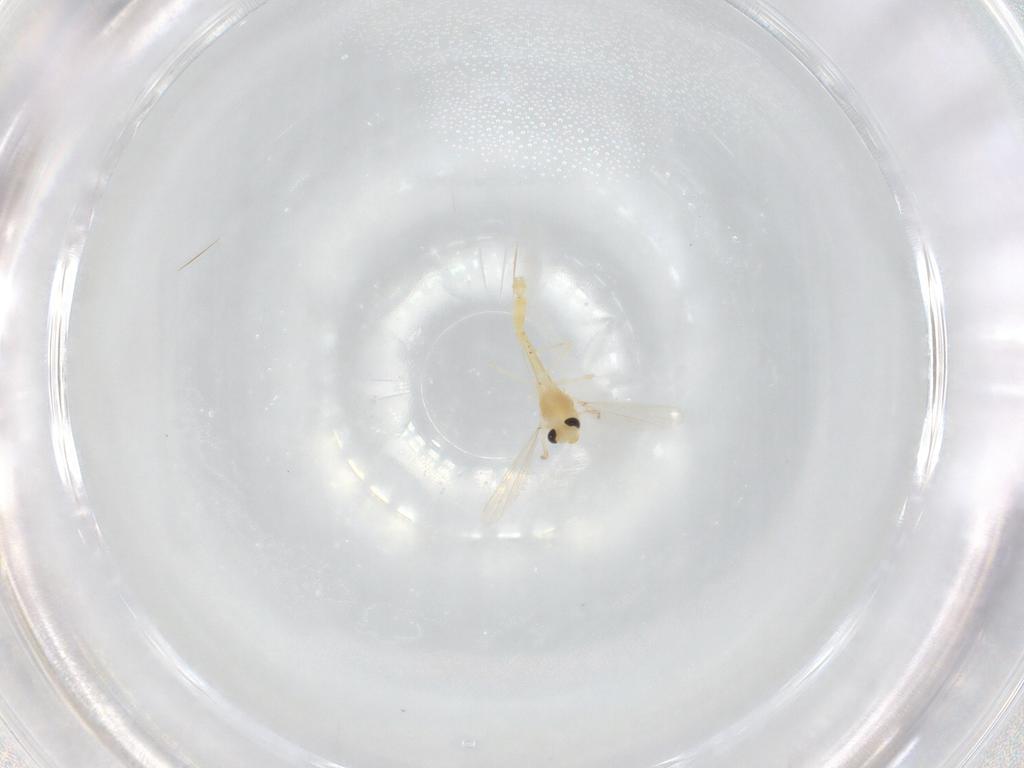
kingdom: Animalia
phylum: Arthropoda
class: Insecta
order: Diptera
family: Chironomidae
